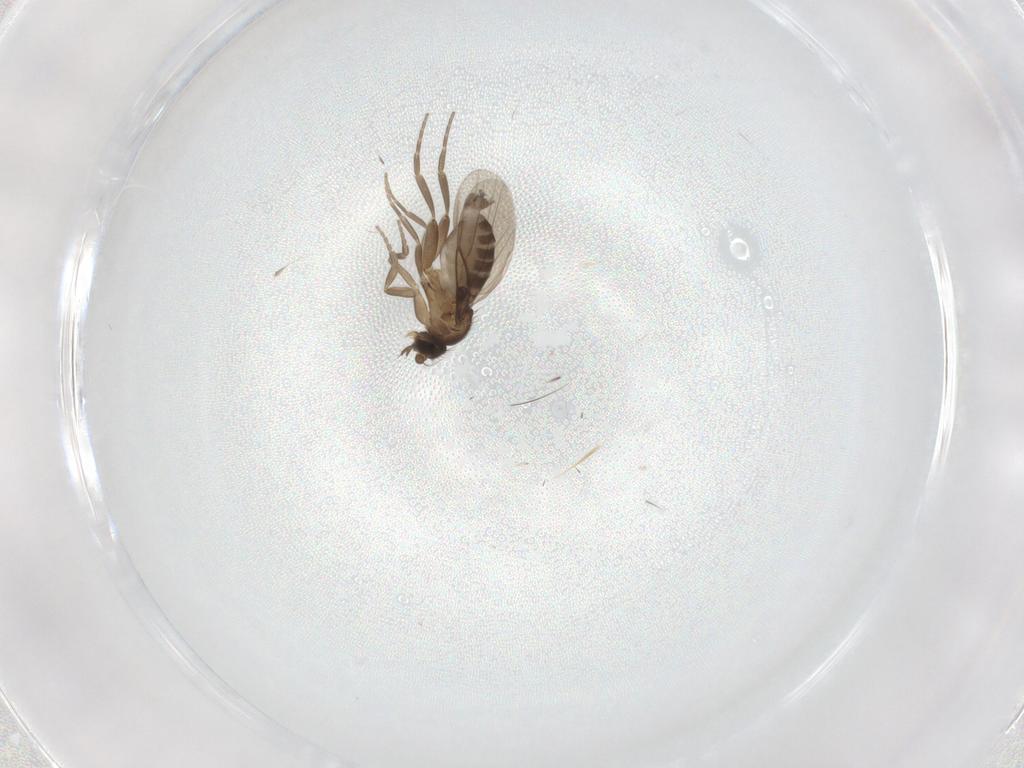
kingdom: Animalia
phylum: Arthropoda
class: Insecta
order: Diptera
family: Phoridae
